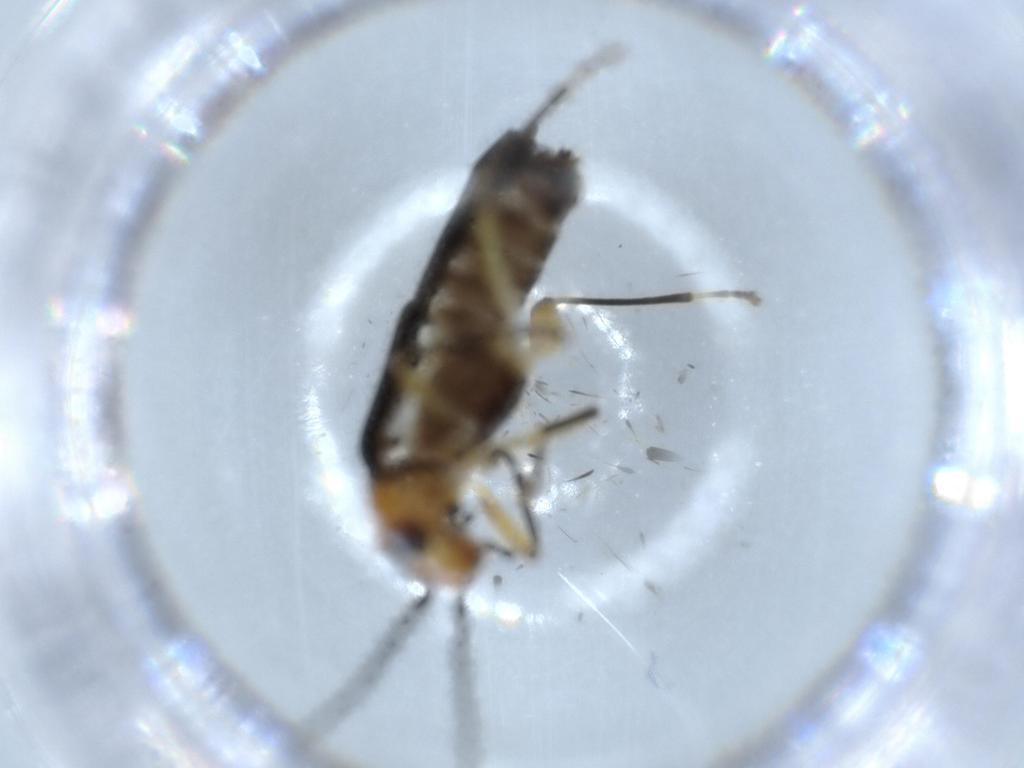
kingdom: Animalia
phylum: Arthropoda
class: Insecta
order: Coleoptera
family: Cantharidae
